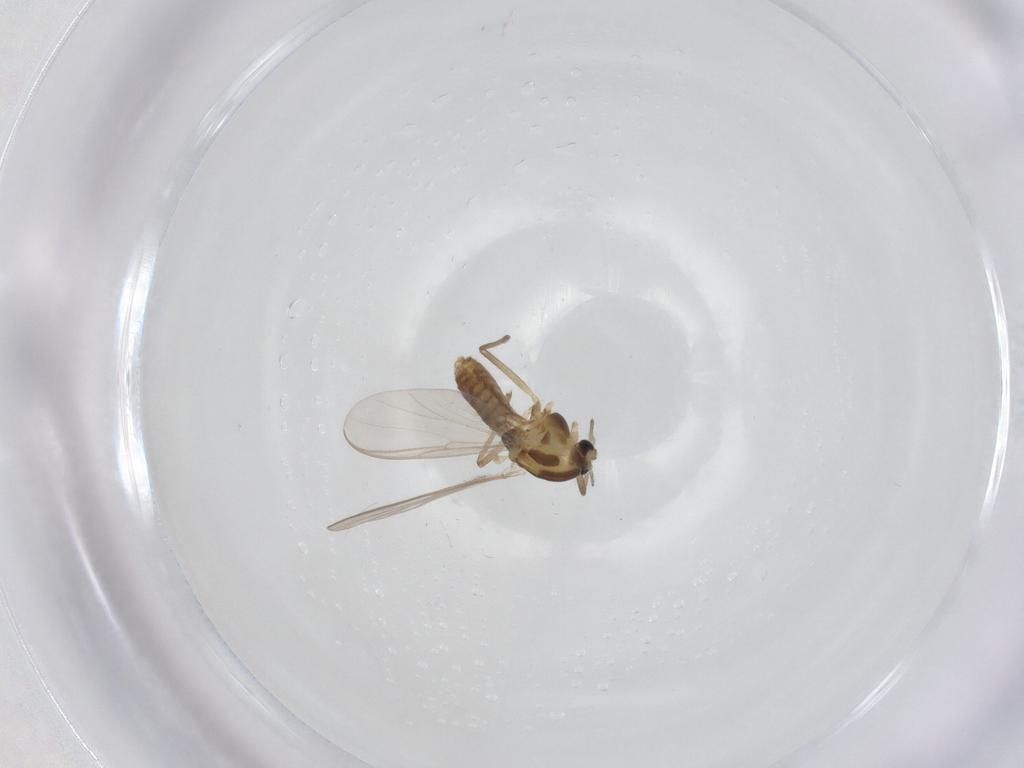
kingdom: Animalia
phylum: Arthropoda
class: Insecta
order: Diptera
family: Chironomidae
